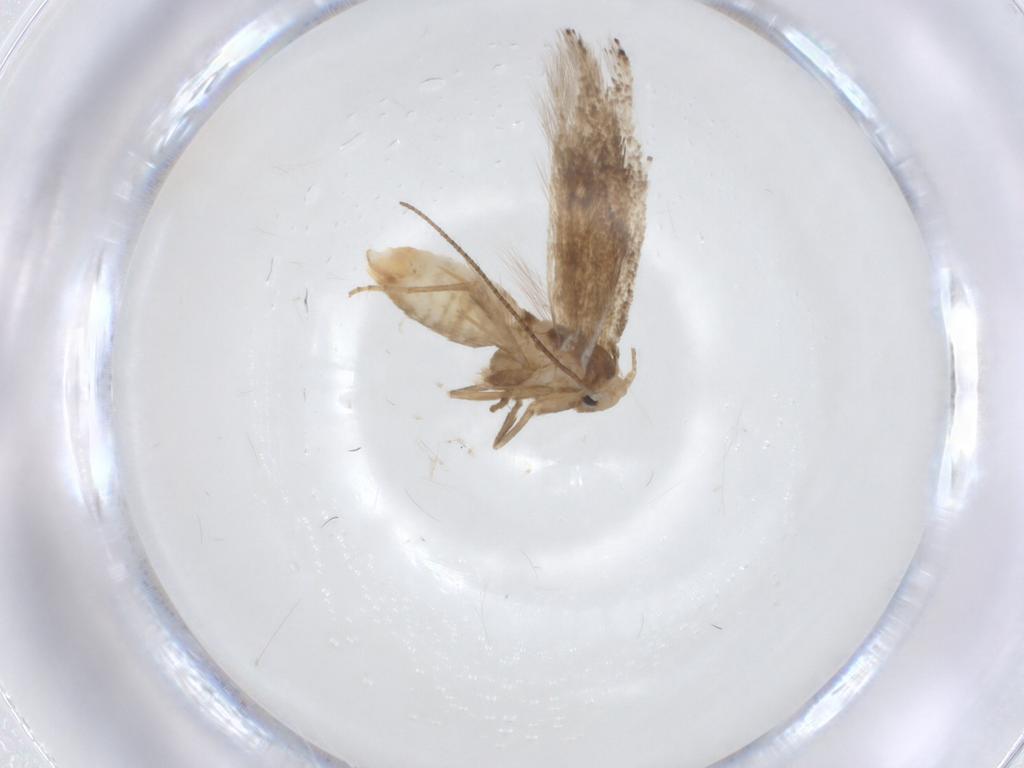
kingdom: Animalia
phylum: Arthropoda
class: Insecta
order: Lepidoptera
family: Bucculatricidae
